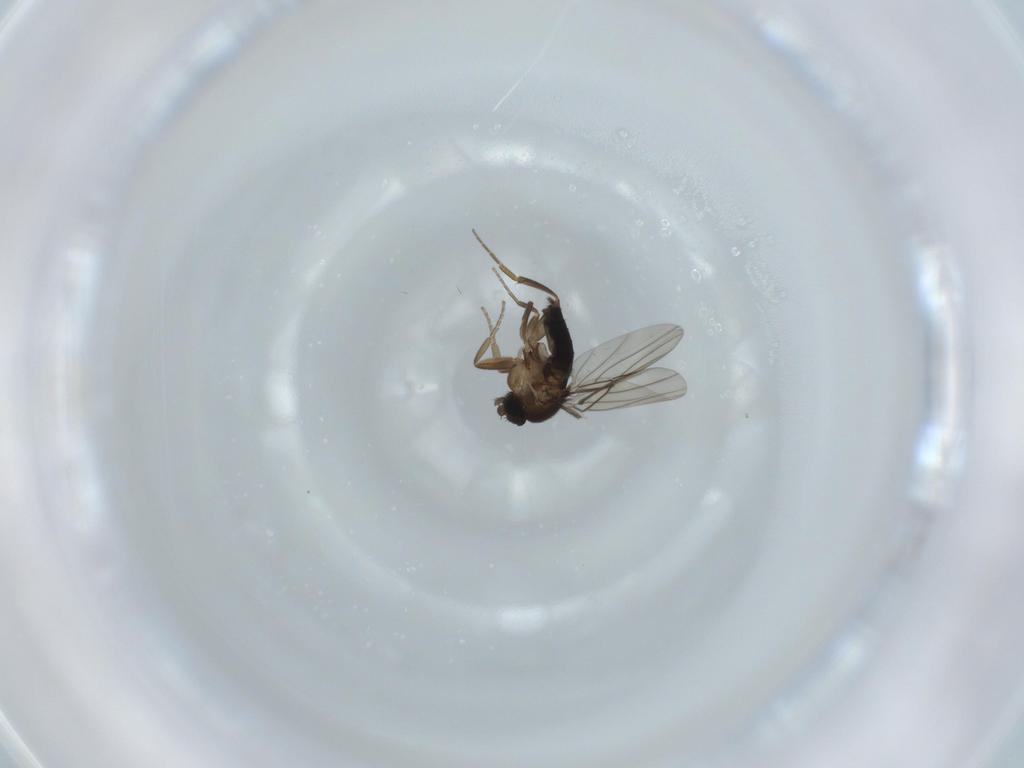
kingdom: Animalia
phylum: Arthropoda
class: Insecta
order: Diptera
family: Phoridae
